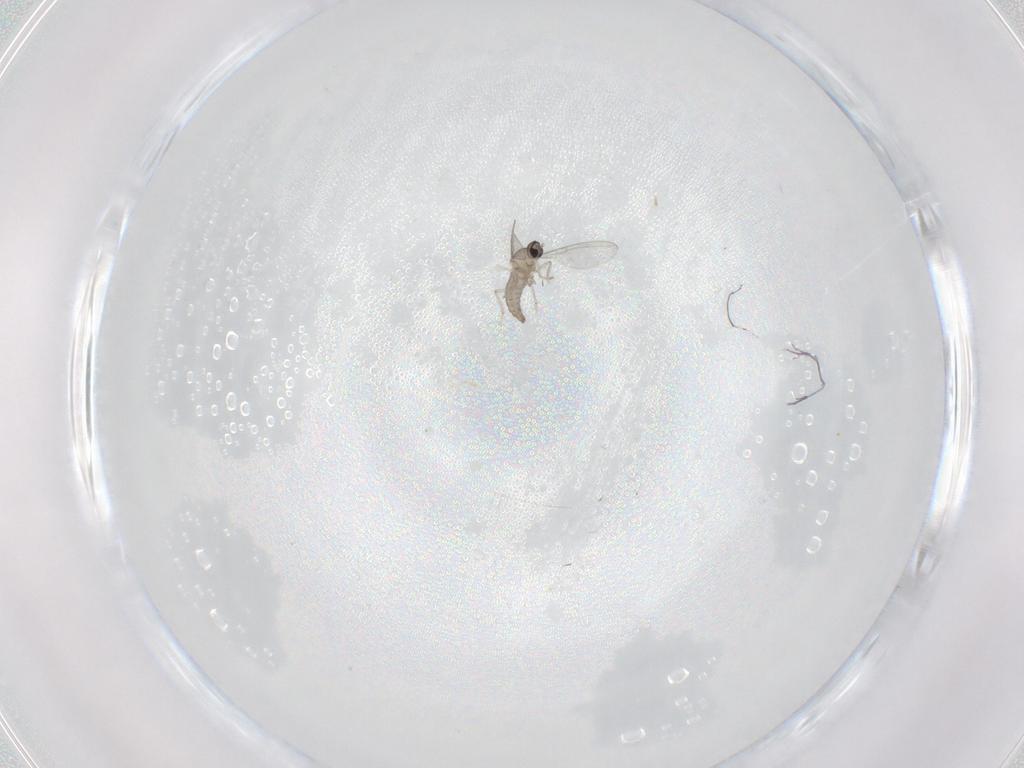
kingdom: Animalia
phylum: Arthropoda
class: Insecta
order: Diptera
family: Cecidomyiidae
